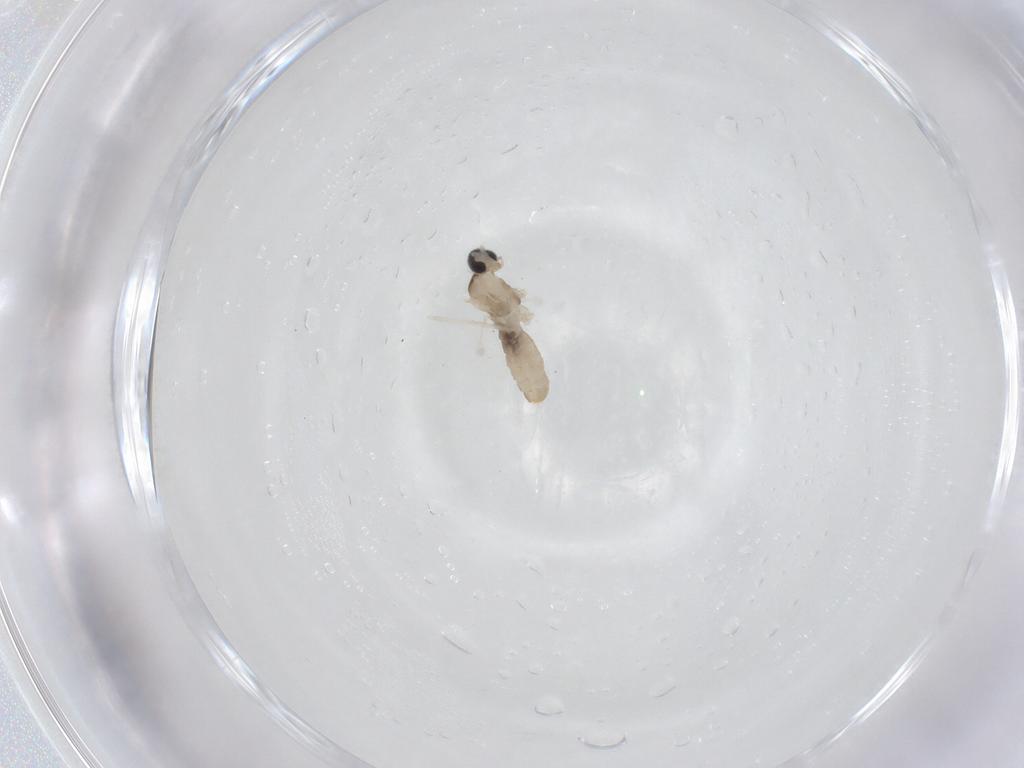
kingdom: Animalia
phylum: Arthropoda
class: Insecta
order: Diptera
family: Cecidomyiidae
